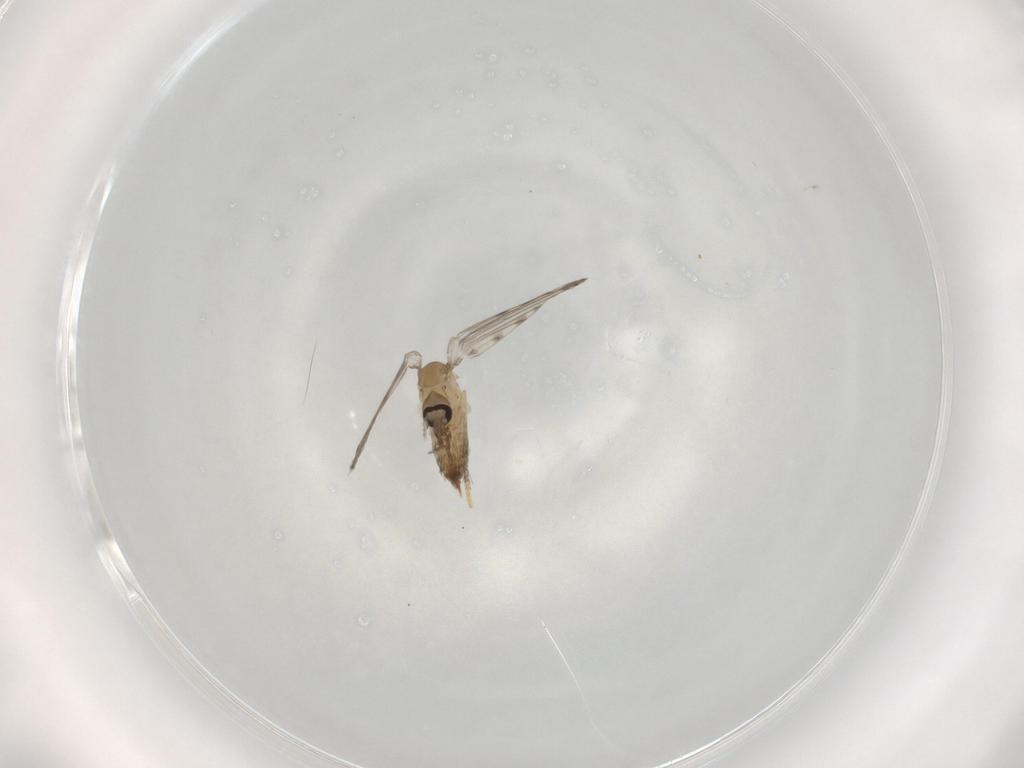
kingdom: Animalia
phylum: Arthropoda
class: Insecta
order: Diptera
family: Psychodidae
